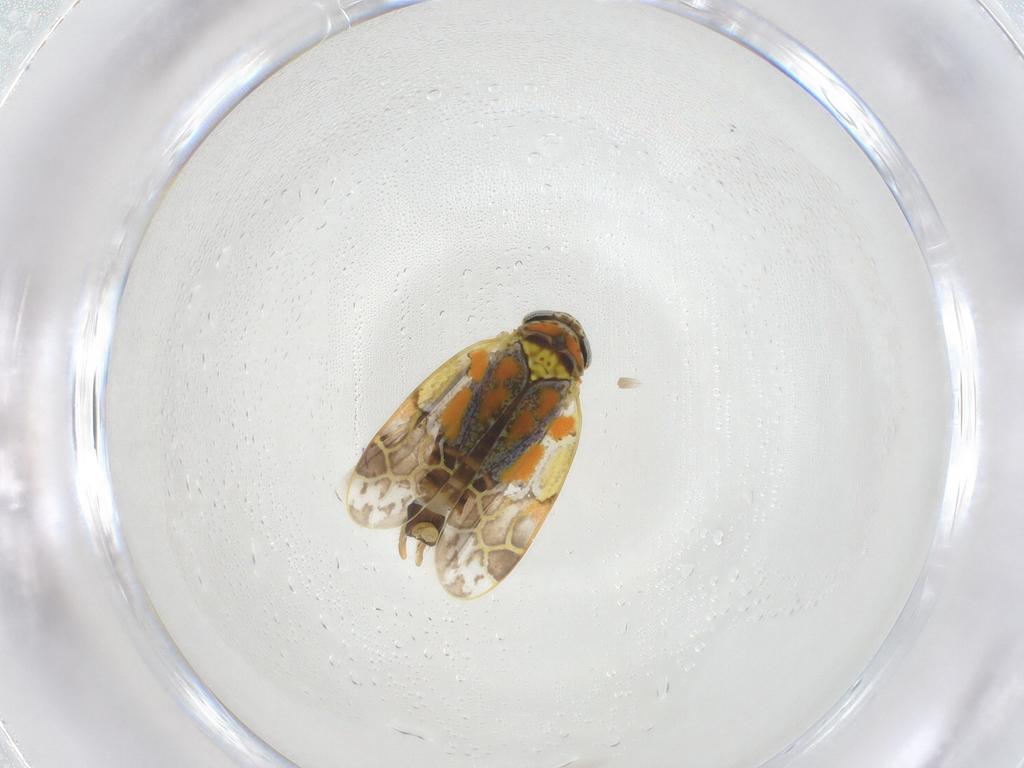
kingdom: Animalia
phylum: Arthropoda
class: Insecta
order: Hemiptera
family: Cicadellidae
